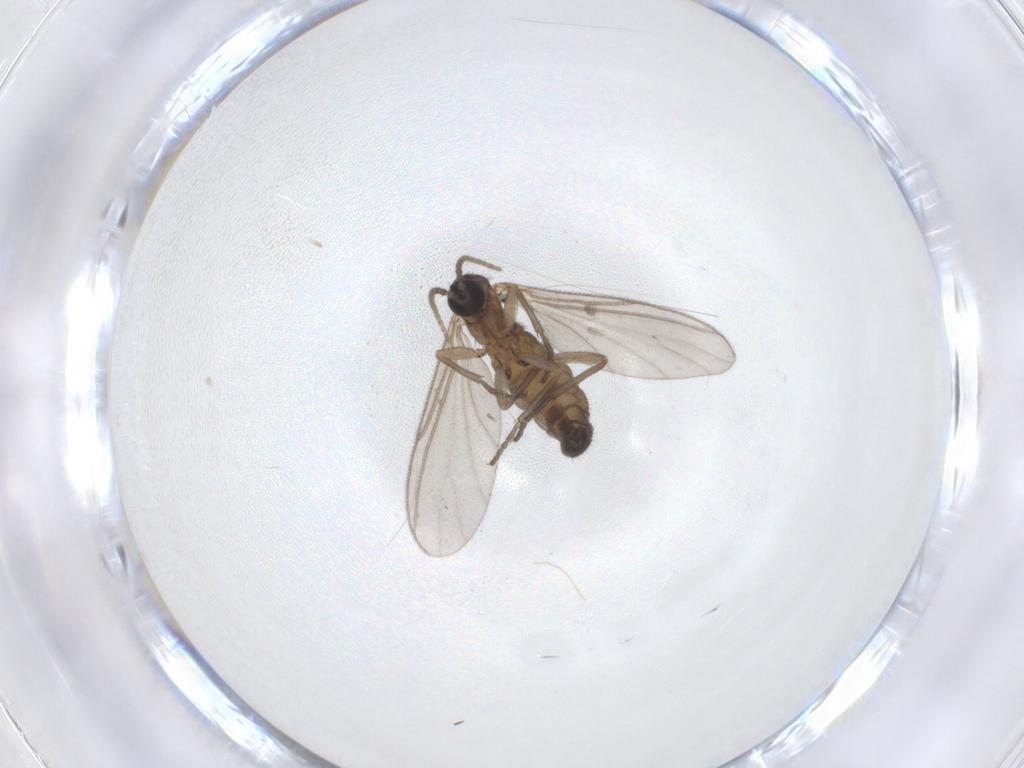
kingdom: Animalia
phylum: Arthropoda
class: Insecta
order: Diptera
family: Sciaridae
